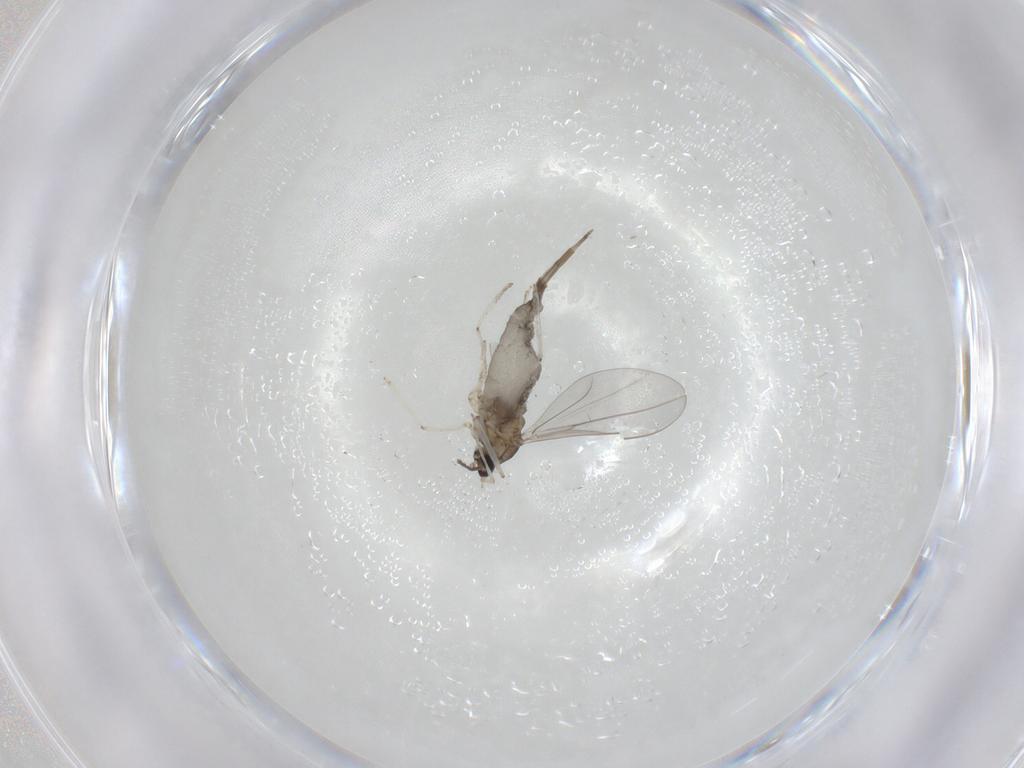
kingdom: Animalia
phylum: Arthropoda
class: Insecta
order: Diptera
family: Cecidomyiidae
